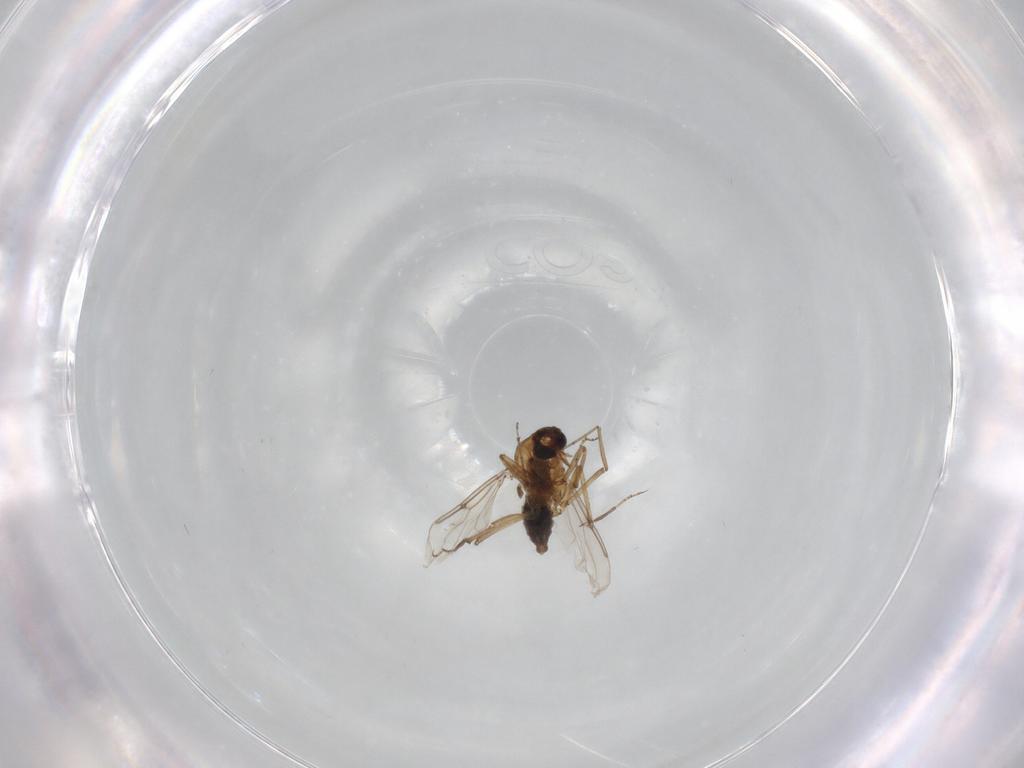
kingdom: Animalia
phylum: Arthropoda
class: Insecta
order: Diptera
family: Chironomidae
